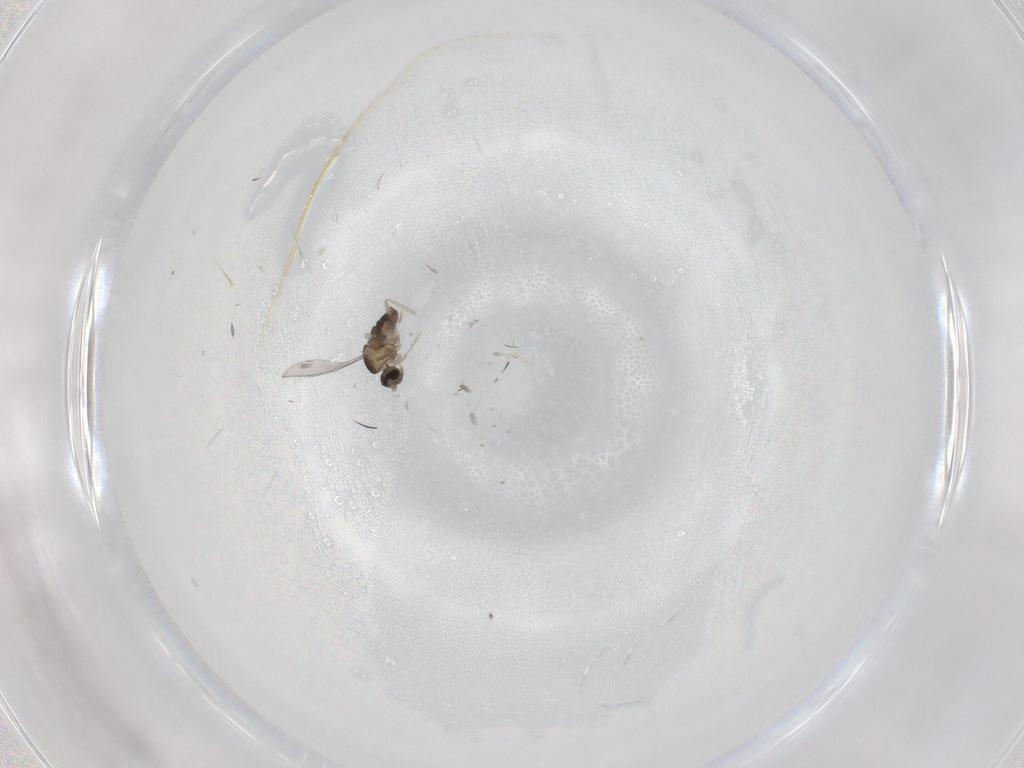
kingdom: Animalia
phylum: Arthropoda
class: Insecta
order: Diptera
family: Cecidomyiidae
